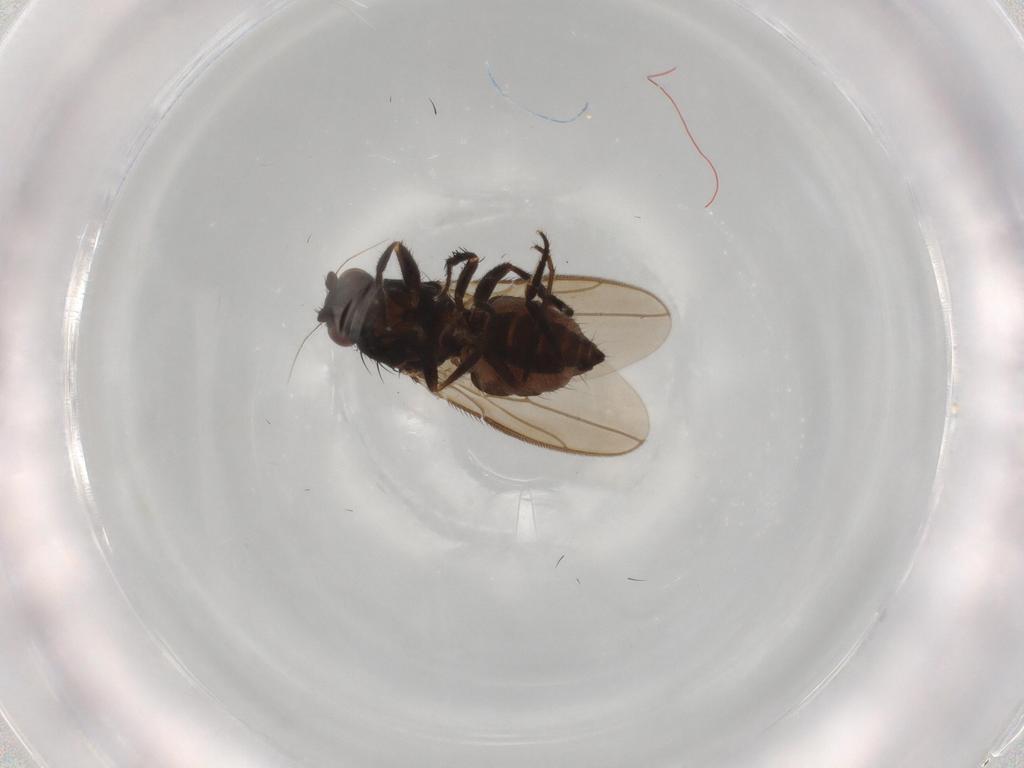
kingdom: Animalia
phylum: Arthropoda
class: Insecta
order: Diptera
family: Sphaeroceridae
